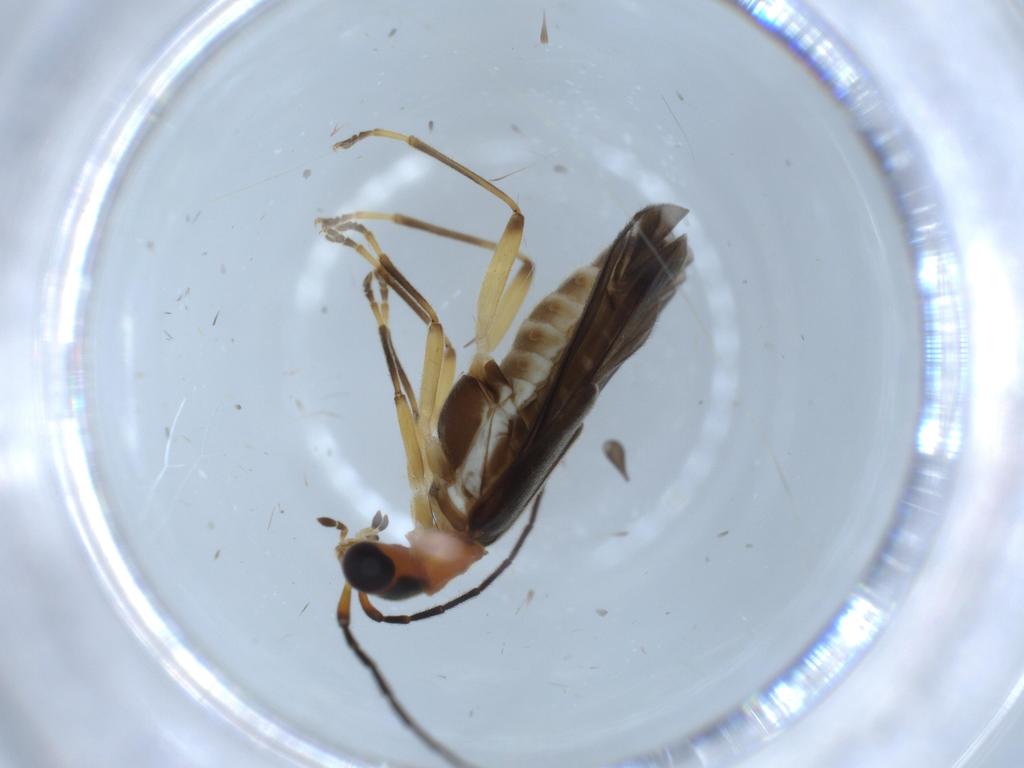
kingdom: Animalia
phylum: Arthropoda
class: Insecta
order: Coleoptera
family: Cantharidae
